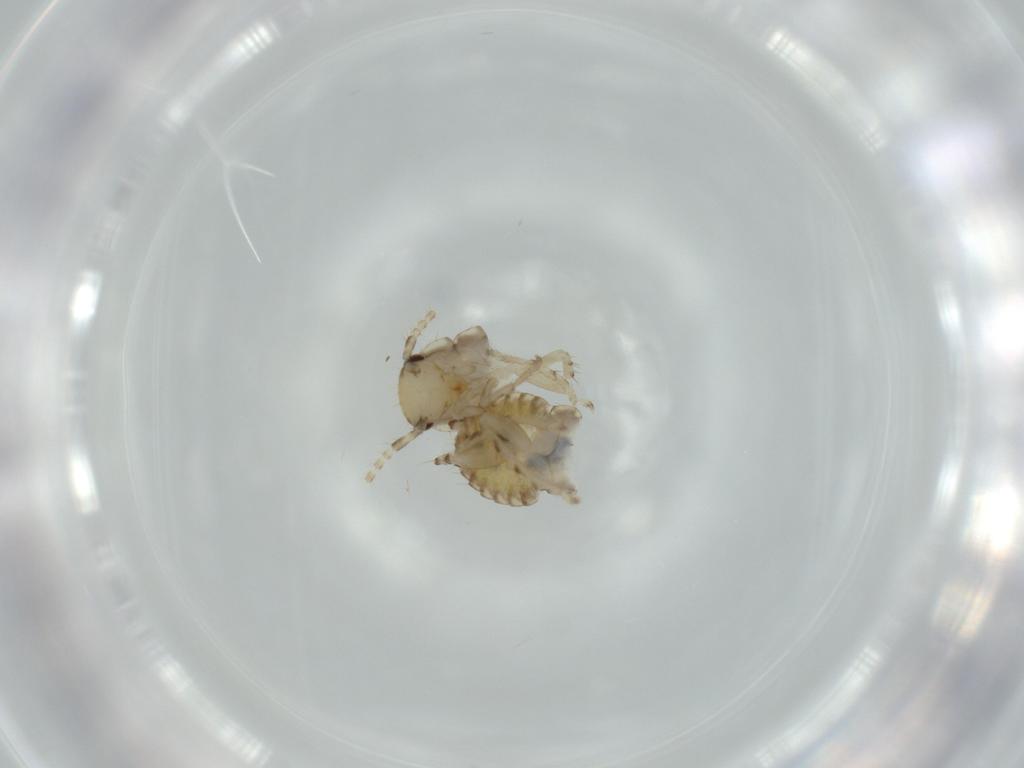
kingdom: Animalia
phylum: Arthropoda
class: Insecta
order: Blattodea
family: Ectobiidae
